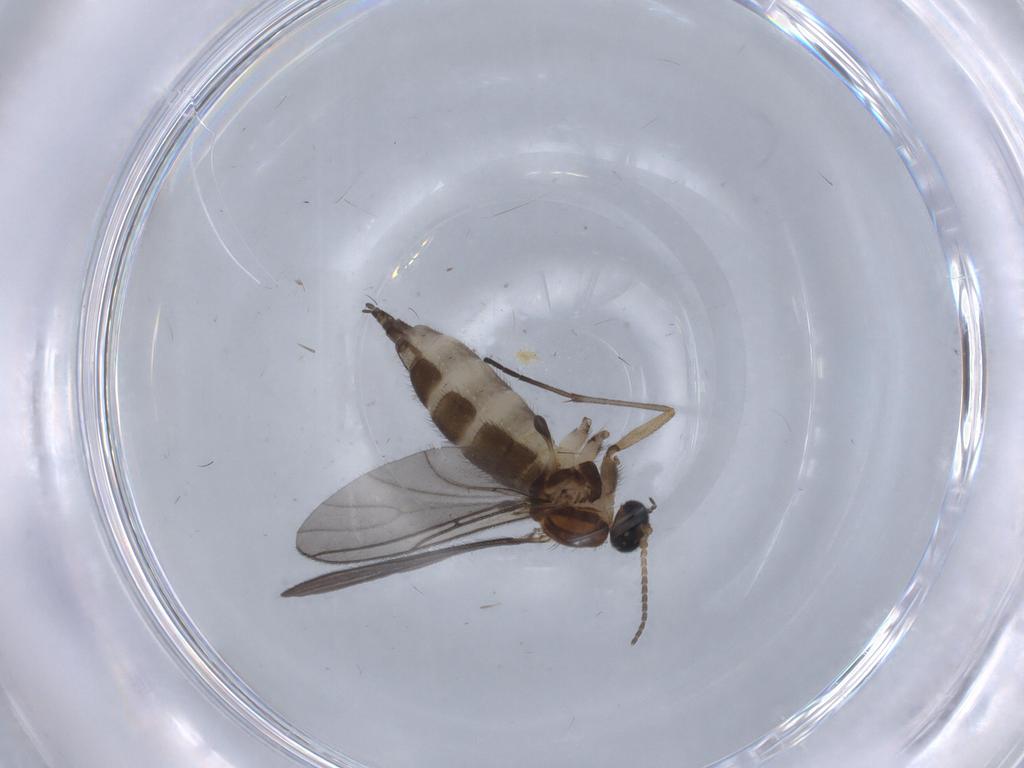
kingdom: Animalia
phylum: Arthropoda
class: Insecta
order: Diptera
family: Sciaridae
